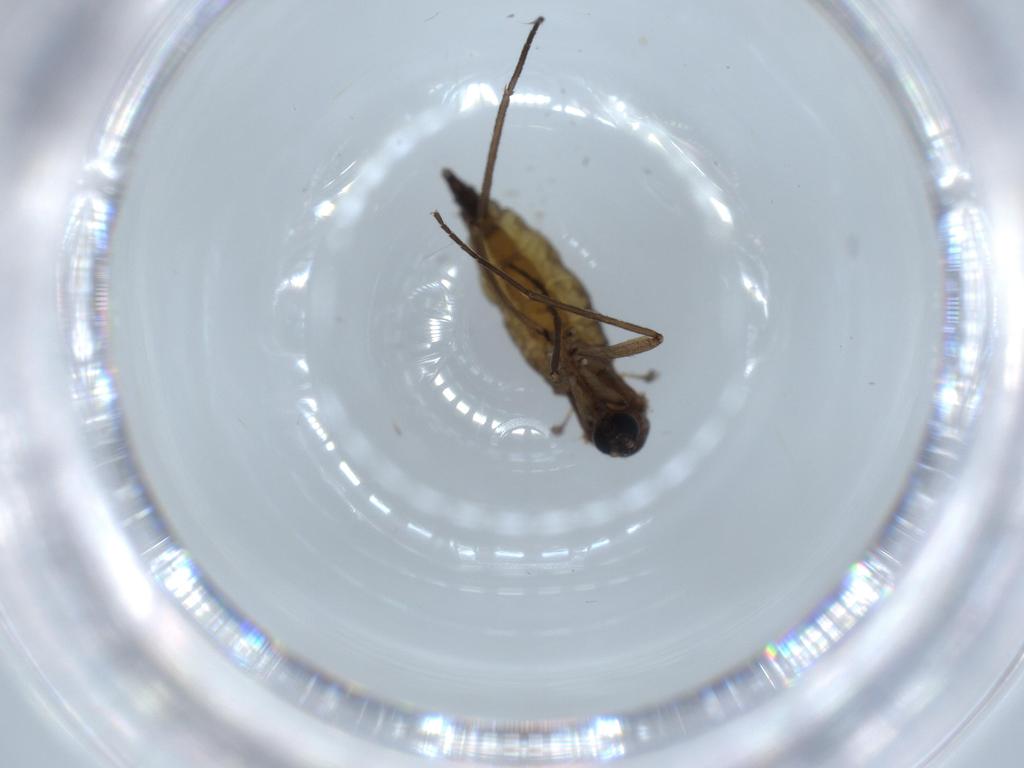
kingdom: Animalia
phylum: Arthropoda
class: Insecta
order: Diptera
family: Sciaridae
